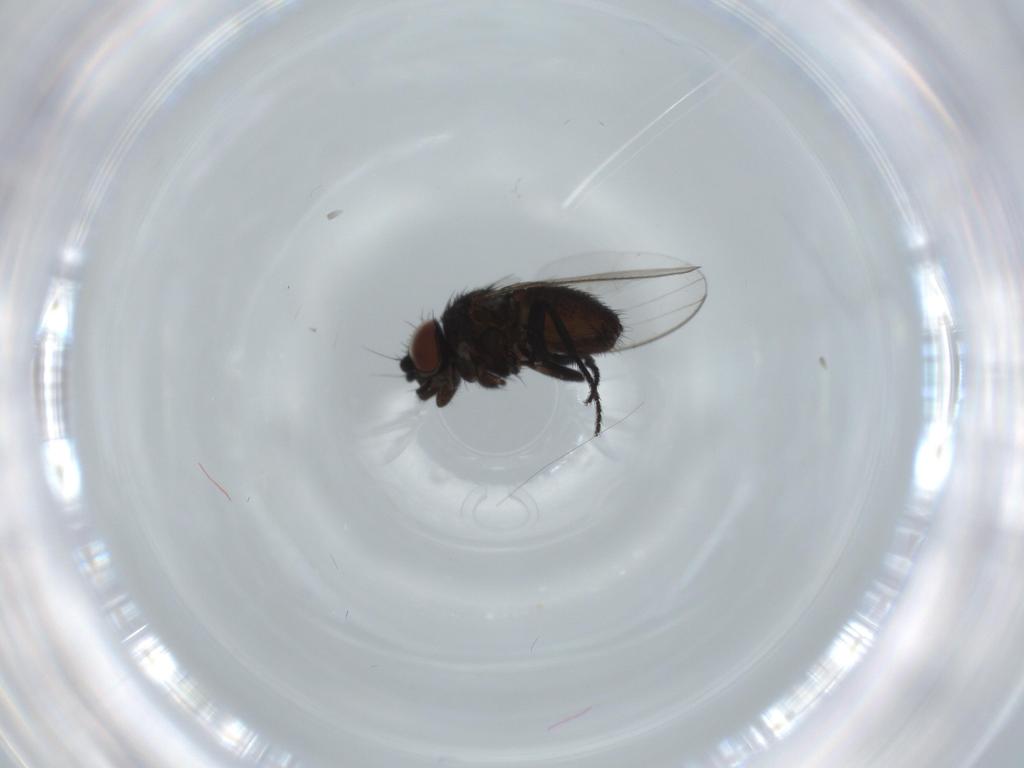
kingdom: Animalia
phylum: Arthropoda
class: Insecta
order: Diptera
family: Milichiidae
